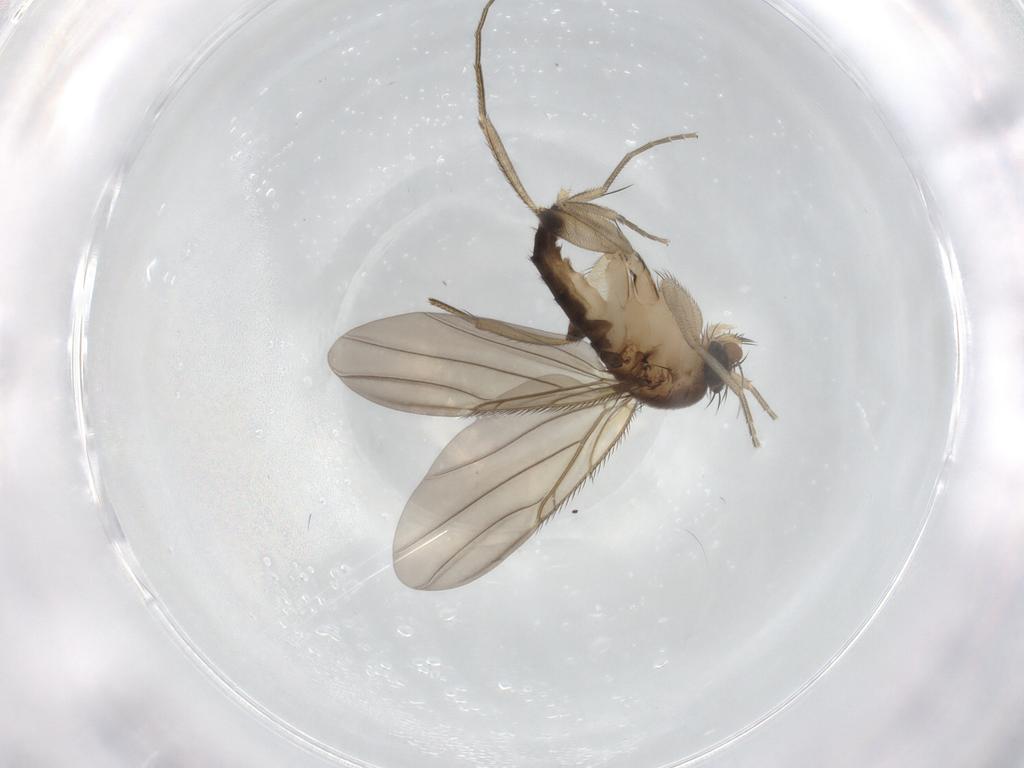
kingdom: Animalia
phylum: Arthropoda
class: Insecta
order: Diptera
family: Phoridae
